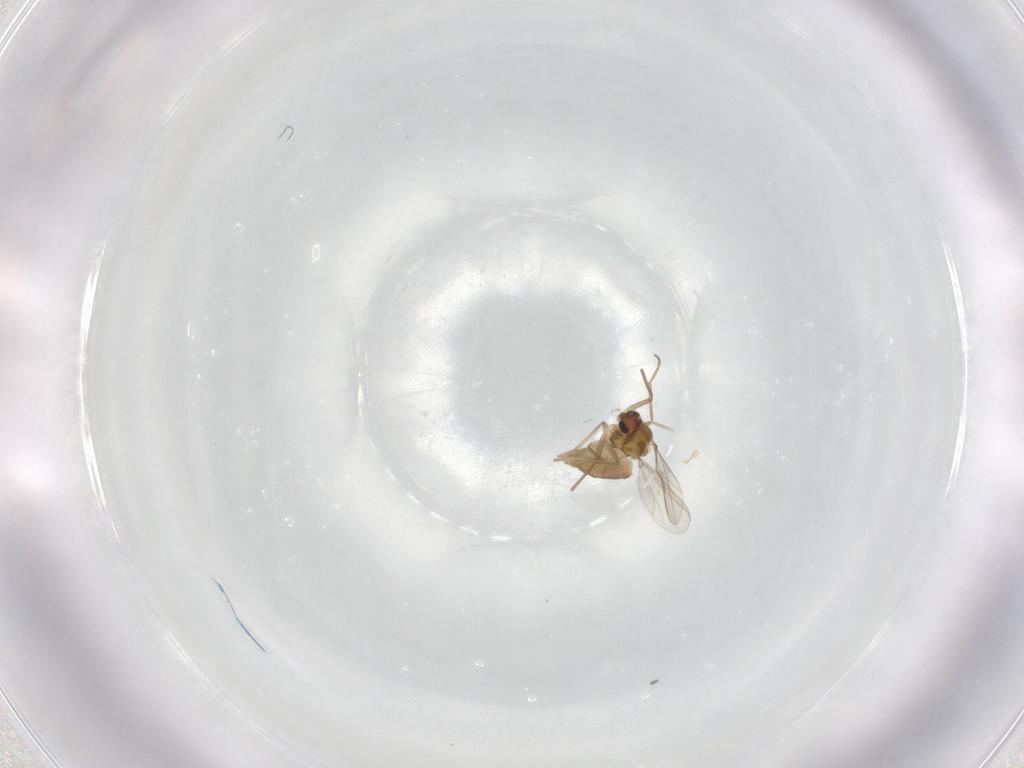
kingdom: Animalia
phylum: Arthropoda
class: Insecta
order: Diptera
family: Chironomidae
